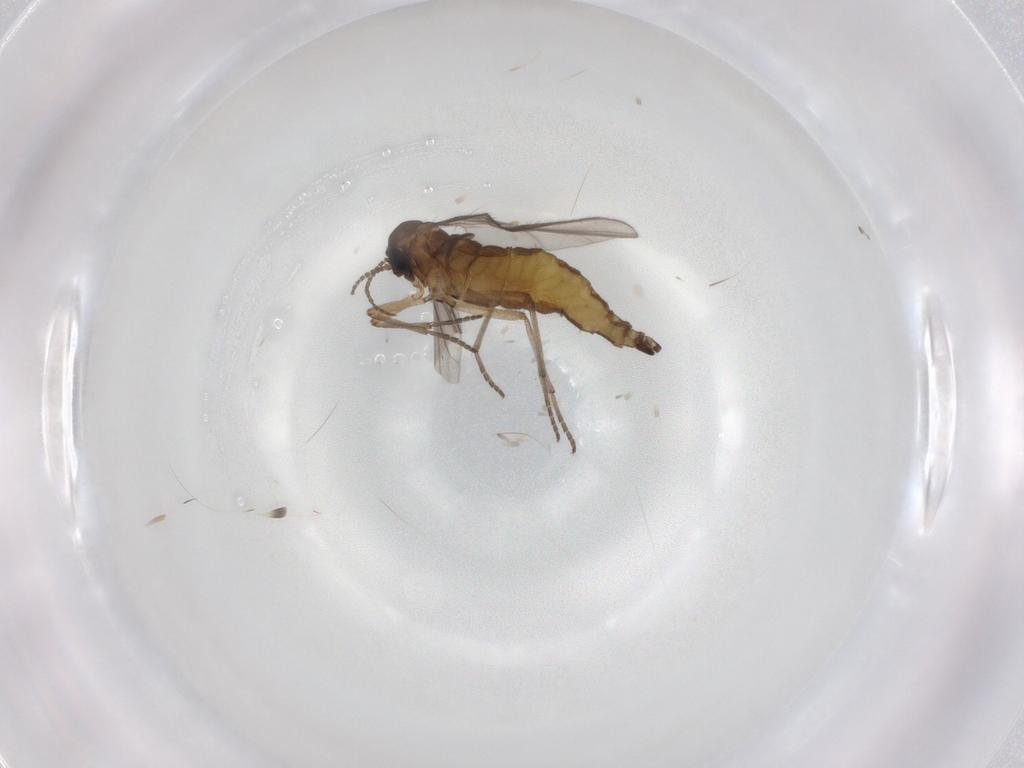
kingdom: Animalia
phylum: Arthropoda
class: Insecta
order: Diptera
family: Sciaridae
